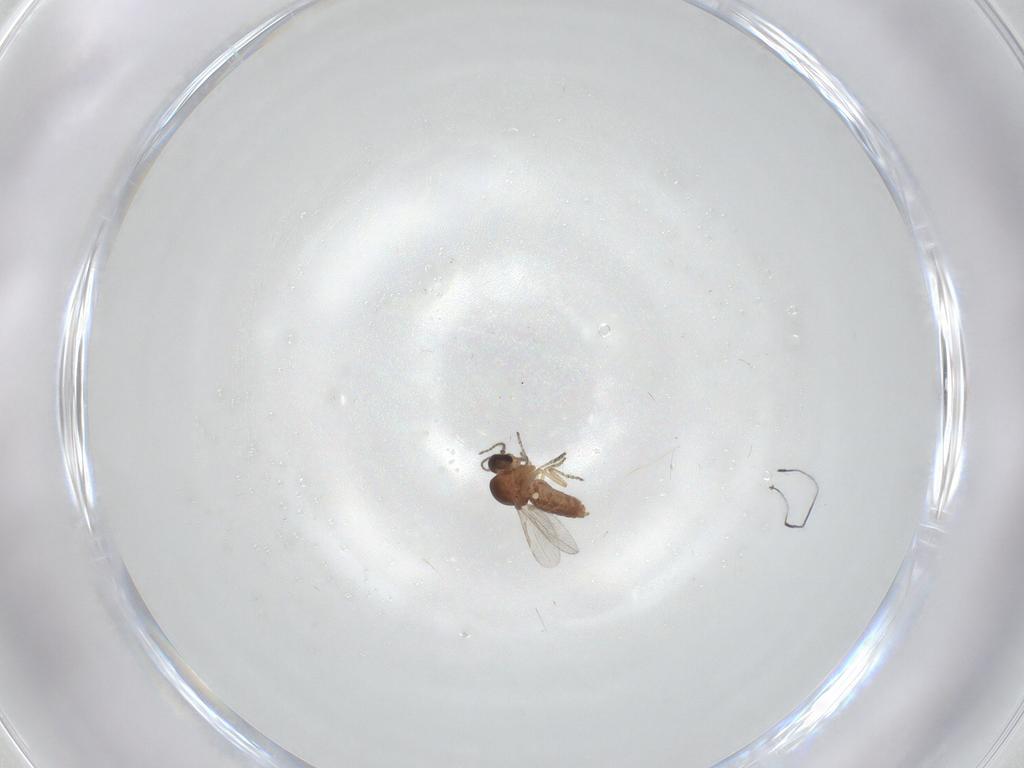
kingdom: Animalia
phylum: Arthropoda
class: Insecta
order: Diptera
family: Ceratopogonidae
